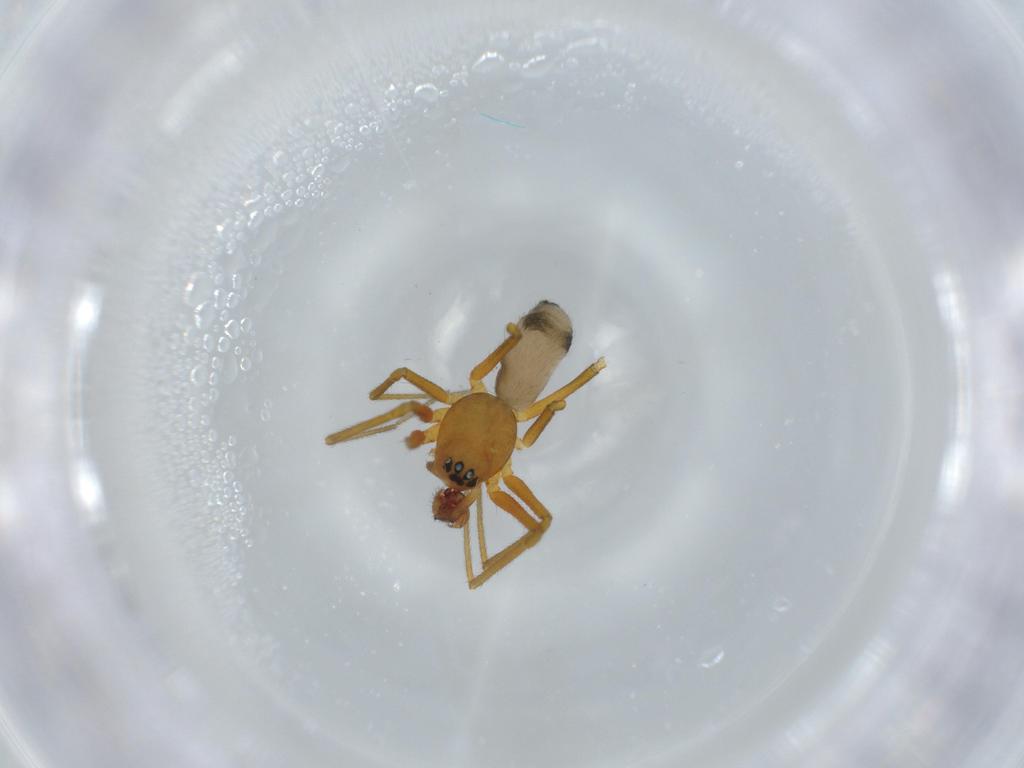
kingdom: Animalia
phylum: Arthropoda
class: Arachnida
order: Araneae
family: Linyphiidae
